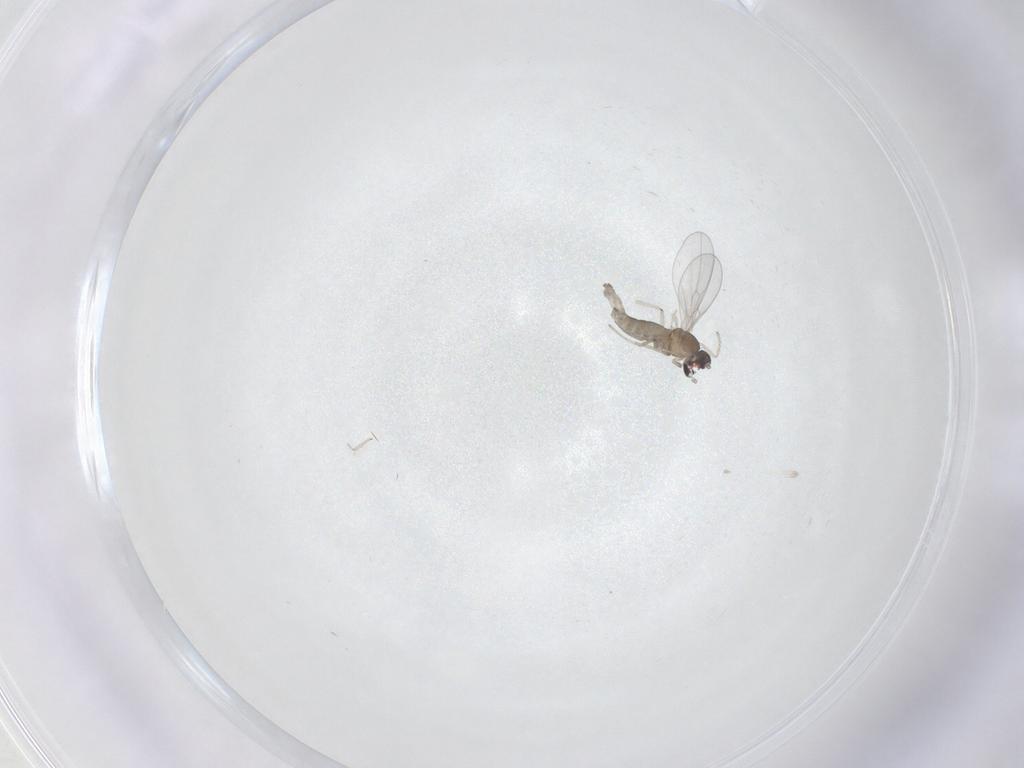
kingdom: Animalia
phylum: Arthropoda
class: Insecta
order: Diptera
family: Cecidomyiidae
